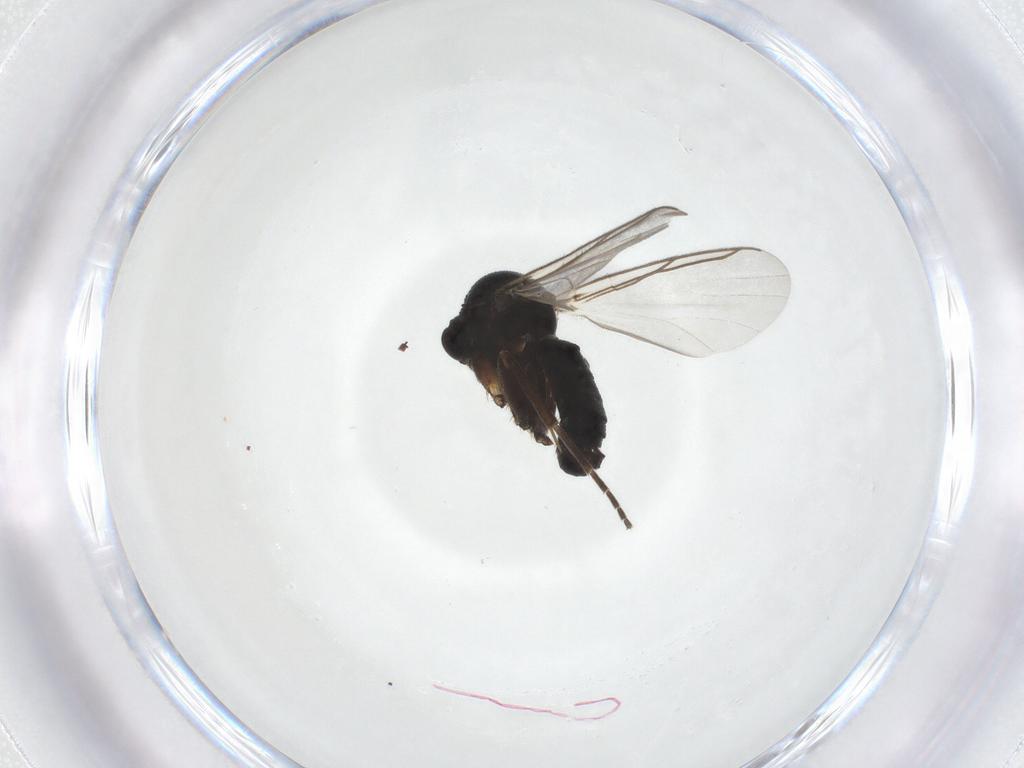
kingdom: Animalia
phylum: Arthropoda
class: Insecta
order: Diptera
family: Mycetophilidae
